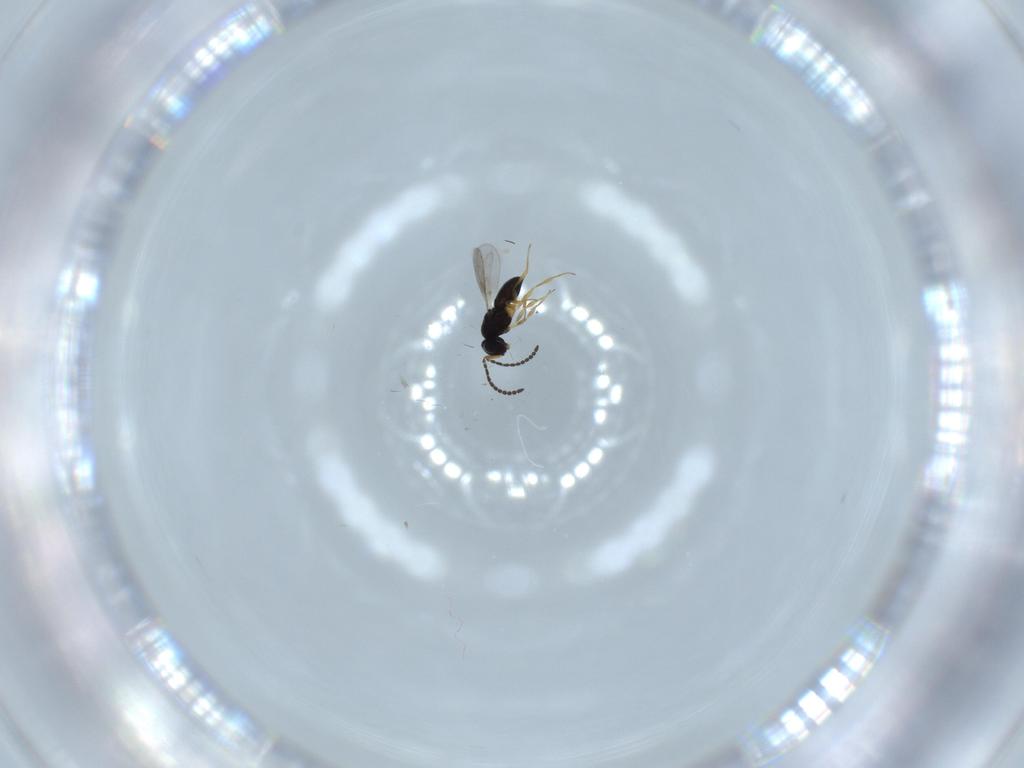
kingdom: Animalia
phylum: Arthropoda
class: Insecta
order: Hymenoptera
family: Scelionidae
